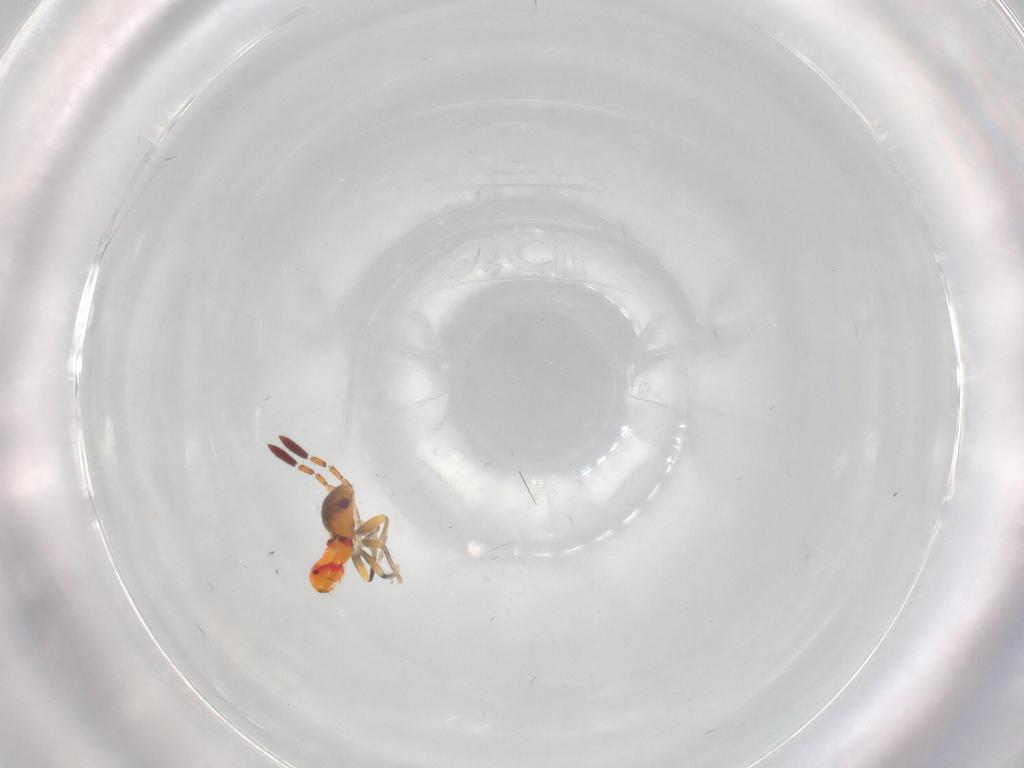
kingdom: Animalia
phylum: Arthropoda
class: Insecta
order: Hemiptera
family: Rhyparochromidae
